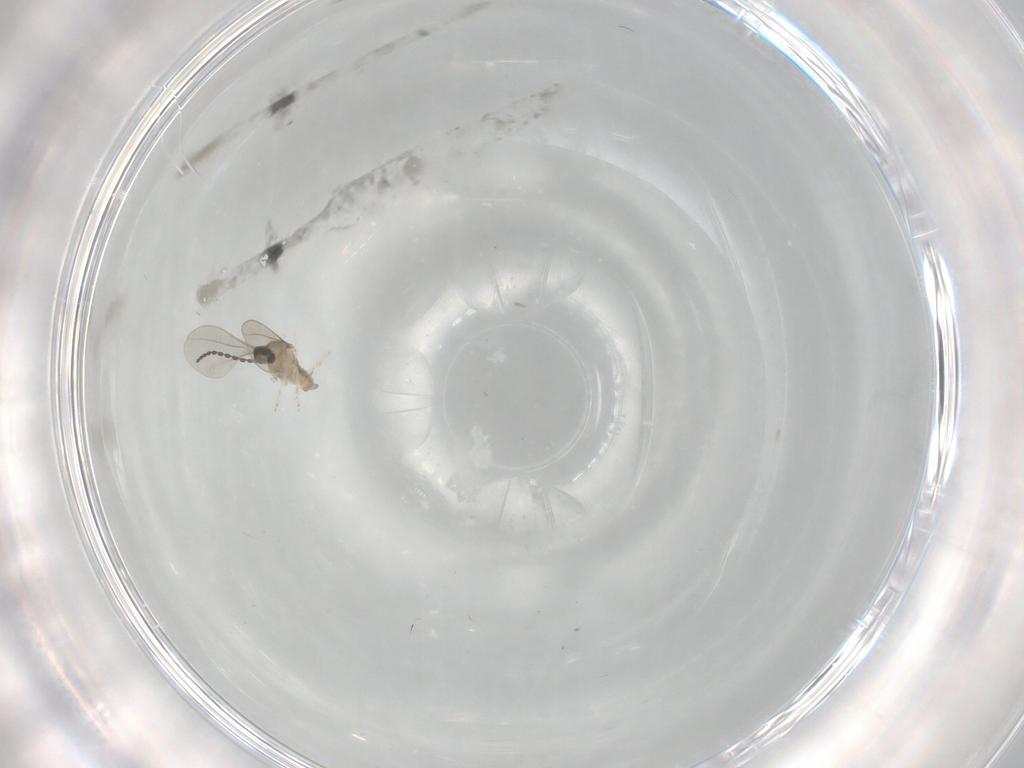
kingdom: Animalia
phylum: Arthropoda
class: Insecta
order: Diptera
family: Cecidomyiidae
